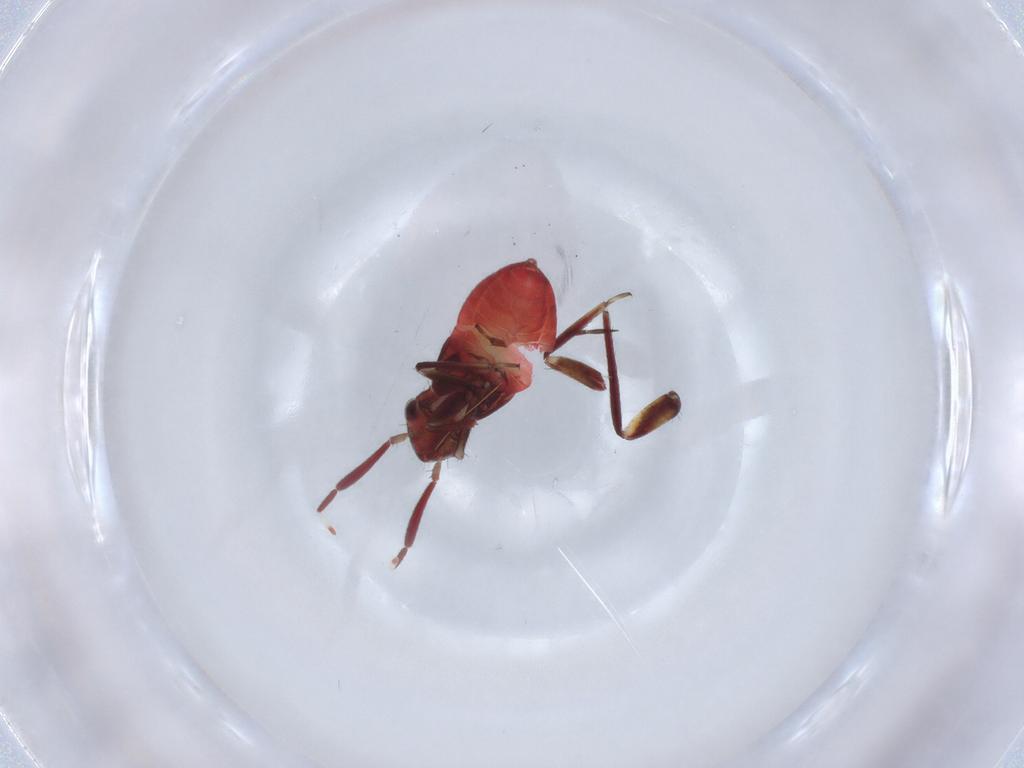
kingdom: Animalia
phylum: Arthropoda
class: Insecta
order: Hemiptera
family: Miridae
